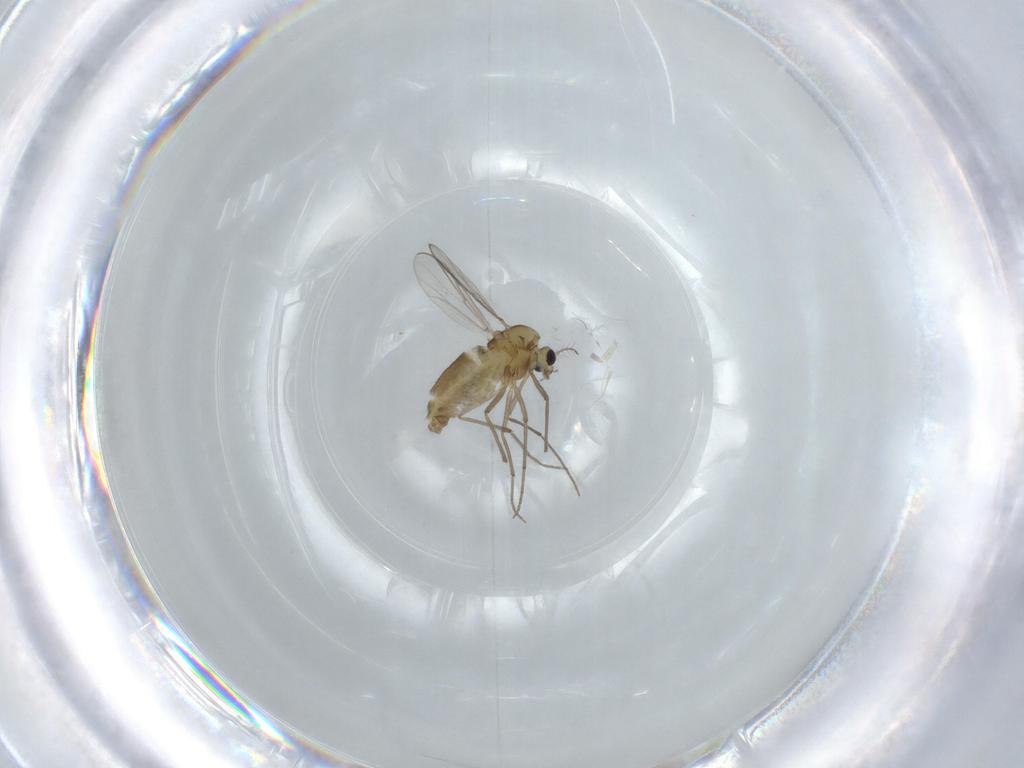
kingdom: Animalia
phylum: Arthropoda
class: Insecta
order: Diptera
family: Chironomidae
